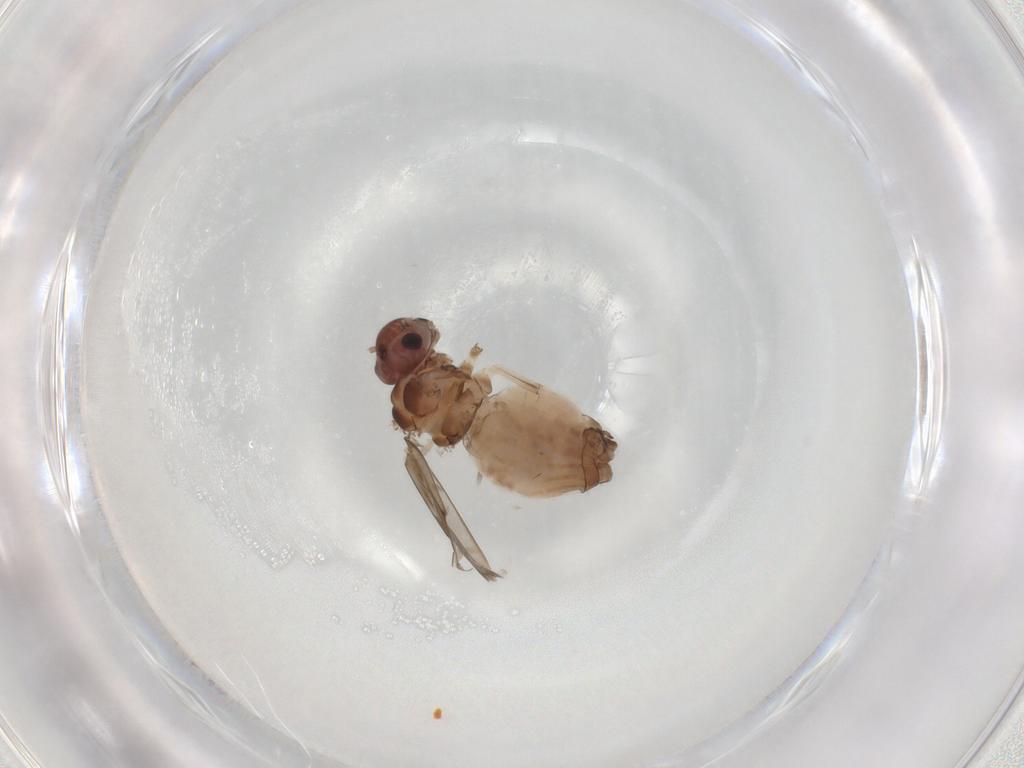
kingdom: Animalia
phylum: Arthropoda
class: Insecta
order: Psocodea
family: Peripsocidae
